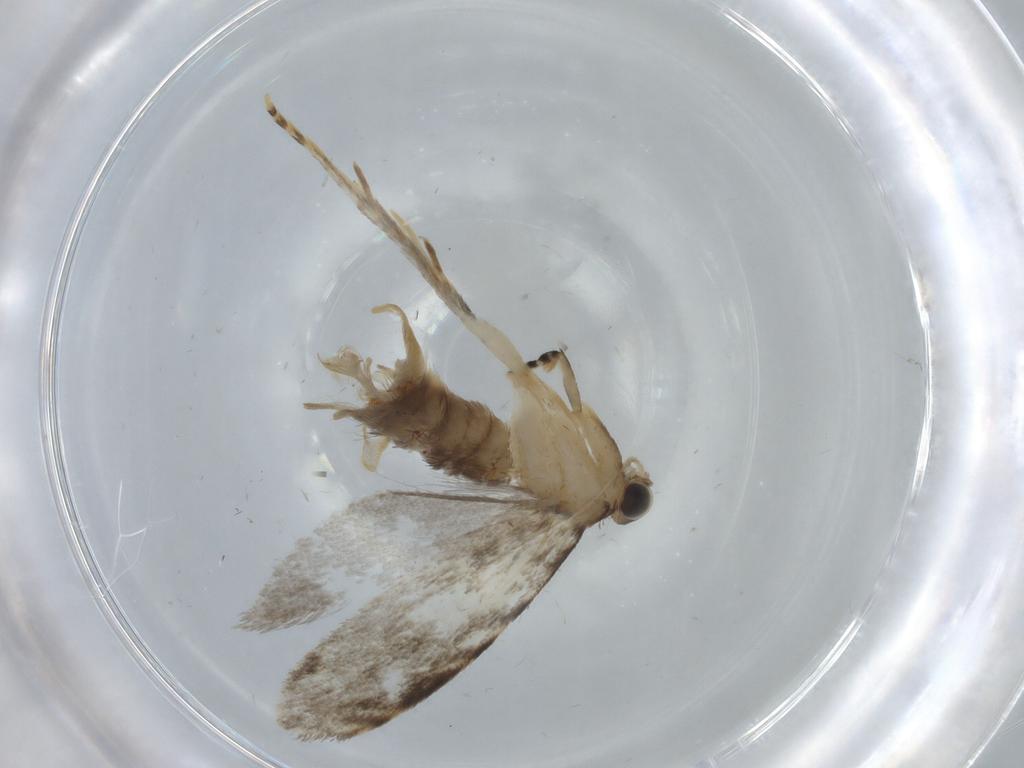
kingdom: Animalia
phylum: Arthropoda
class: Insecta
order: Lepidoptera
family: Tineidae
